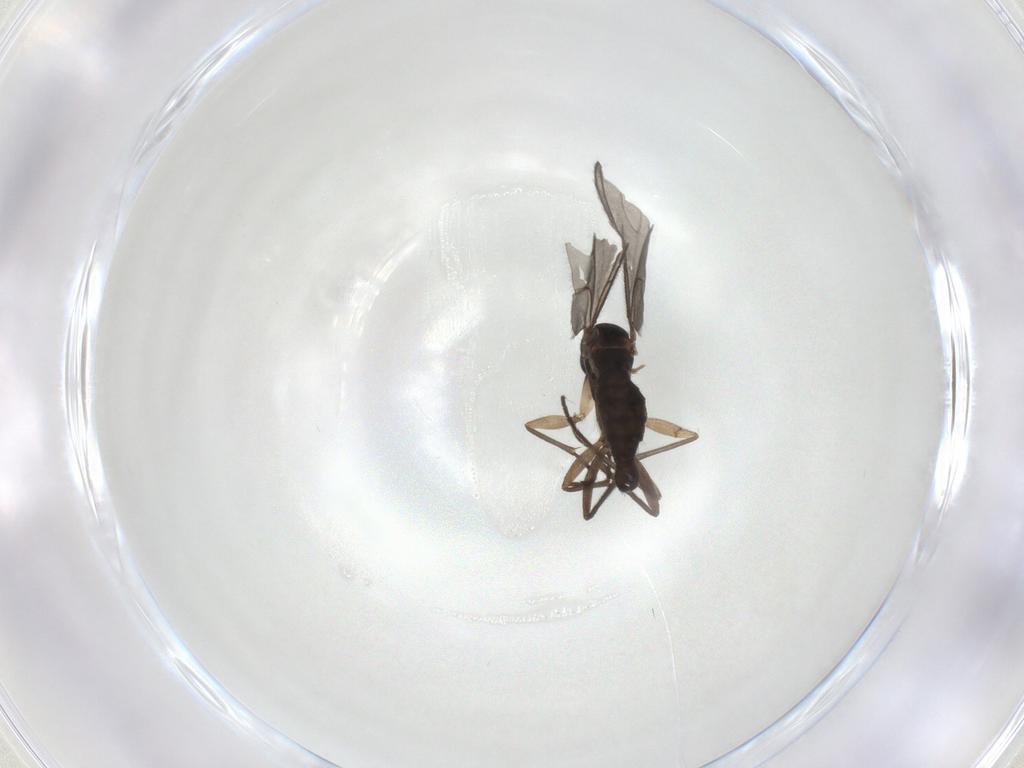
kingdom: Animalia
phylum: Arthropoda
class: Insecta
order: Diptera
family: Sciaridae
